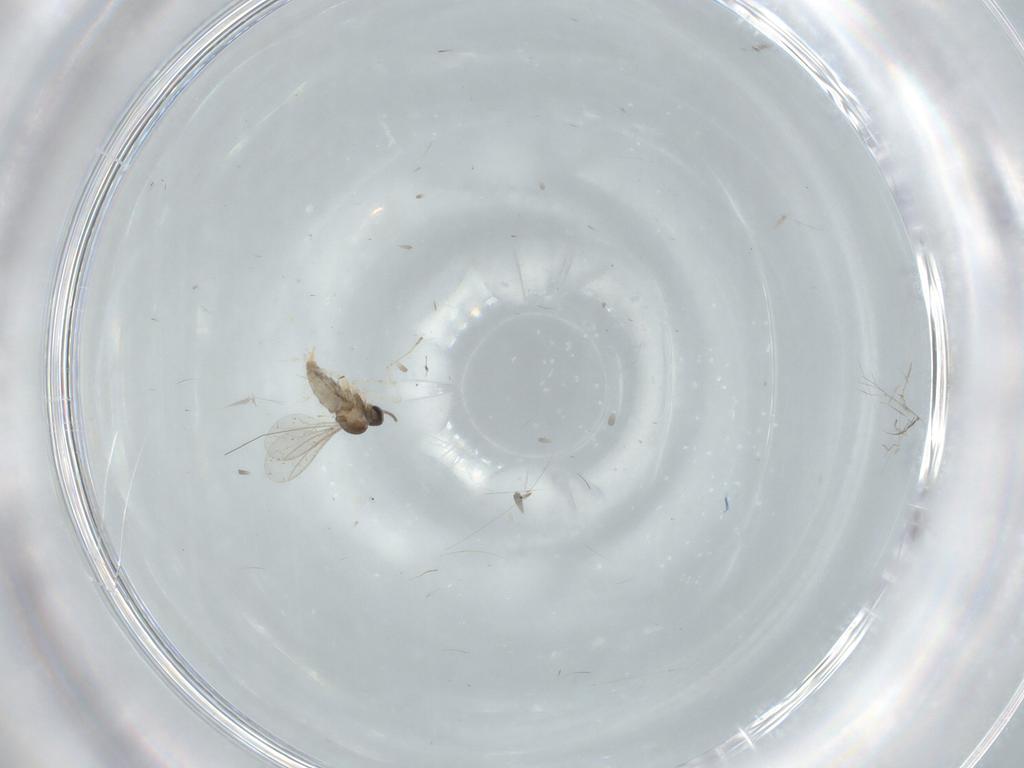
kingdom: Animalia
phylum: Arthropoda
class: Insecta
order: Diptera
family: Cecidomyiidae
